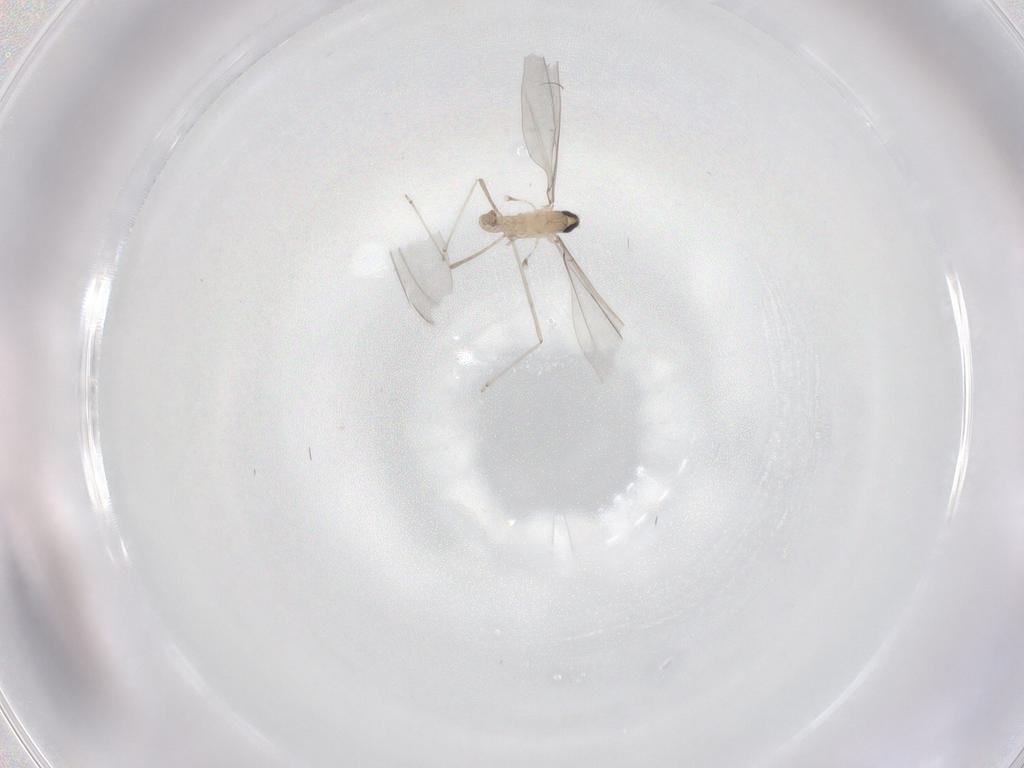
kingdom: Animalia
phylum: Arthropoda
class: Insecta
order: Diptera
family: Cecidomyiidae
